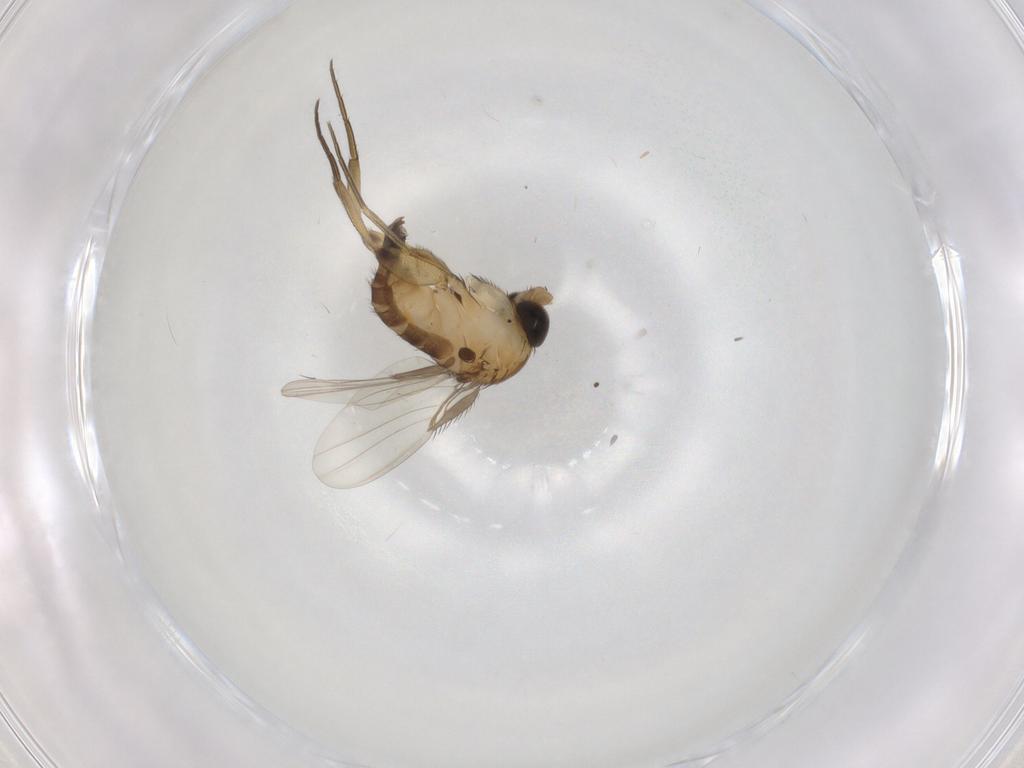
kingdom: Animalia
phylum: Arthropoda
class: Insecta
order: Diptera
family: Phoridae
